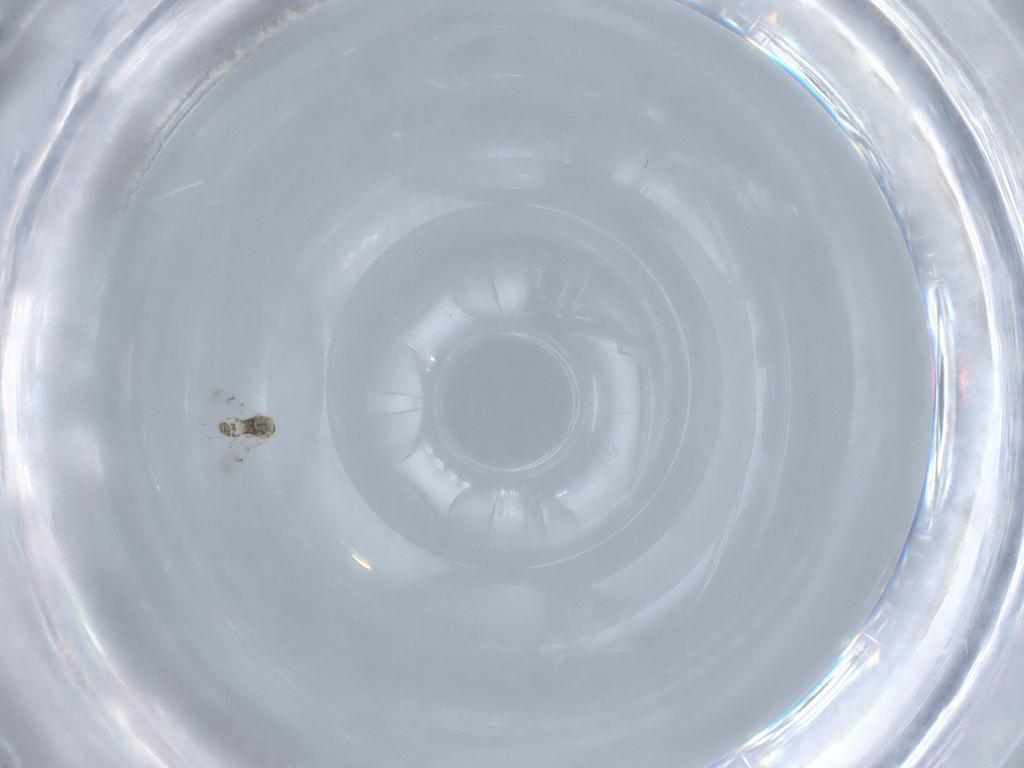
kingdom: Animalia
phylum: Arthropoda
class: Insecta
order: Hymenoptera
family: Eulophidae
